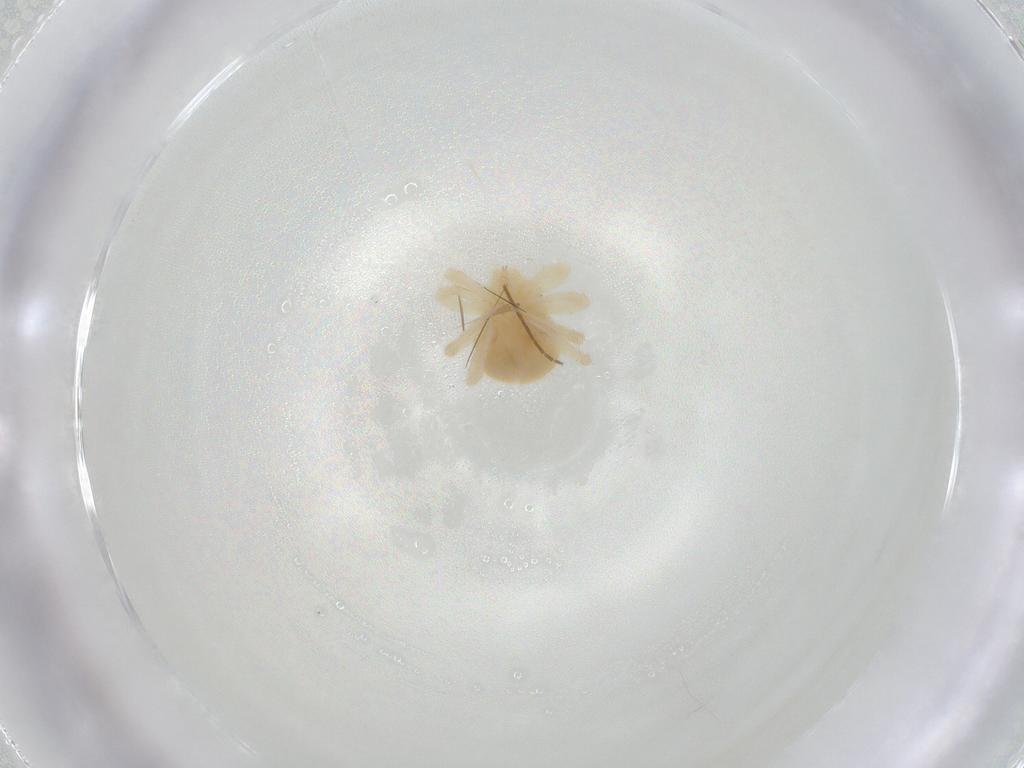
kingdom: Animalia
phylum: Arthropoda
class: Arachnida
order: Trombidiformes
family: Anystidae
